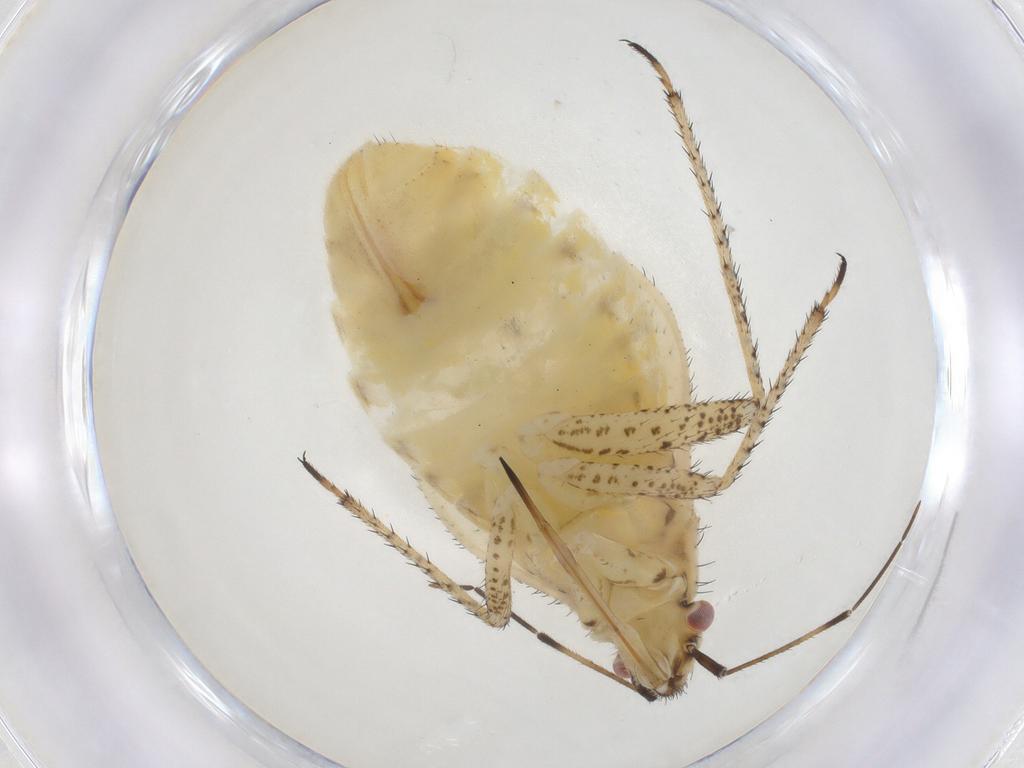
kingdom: Animalia
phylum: Arthropoda
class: Insecta
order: Hemiptera
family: Miridae
